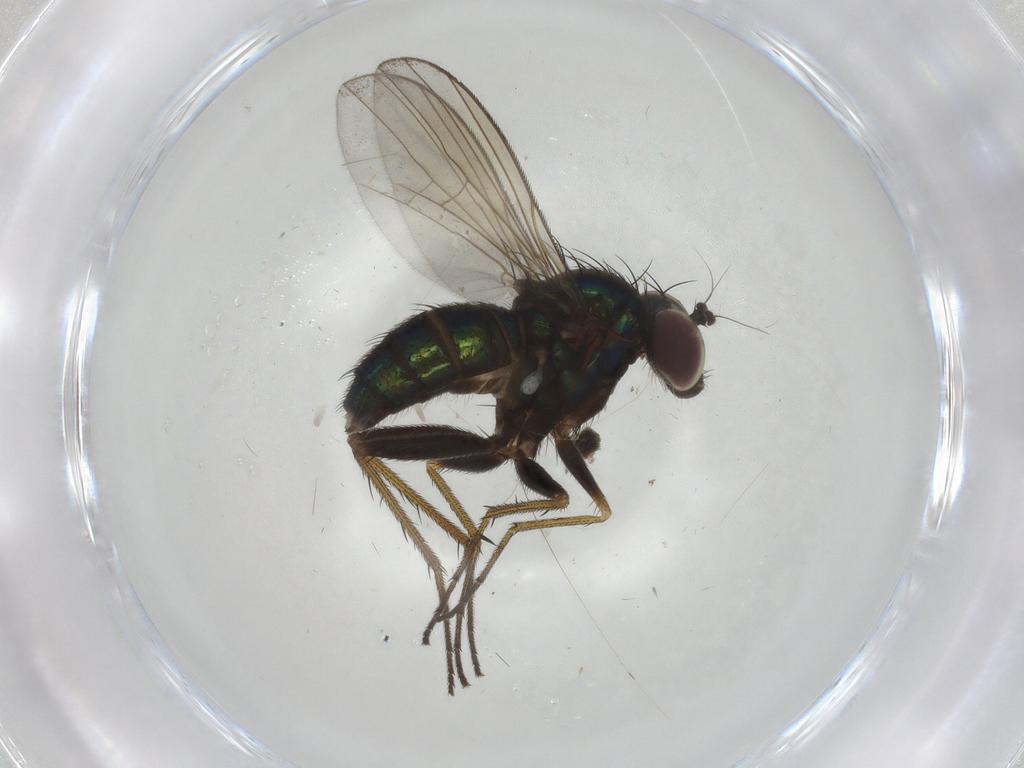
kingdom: Animalia
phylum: Arthropoda
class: Insecta
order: Diptera
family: Dolichopodidae
